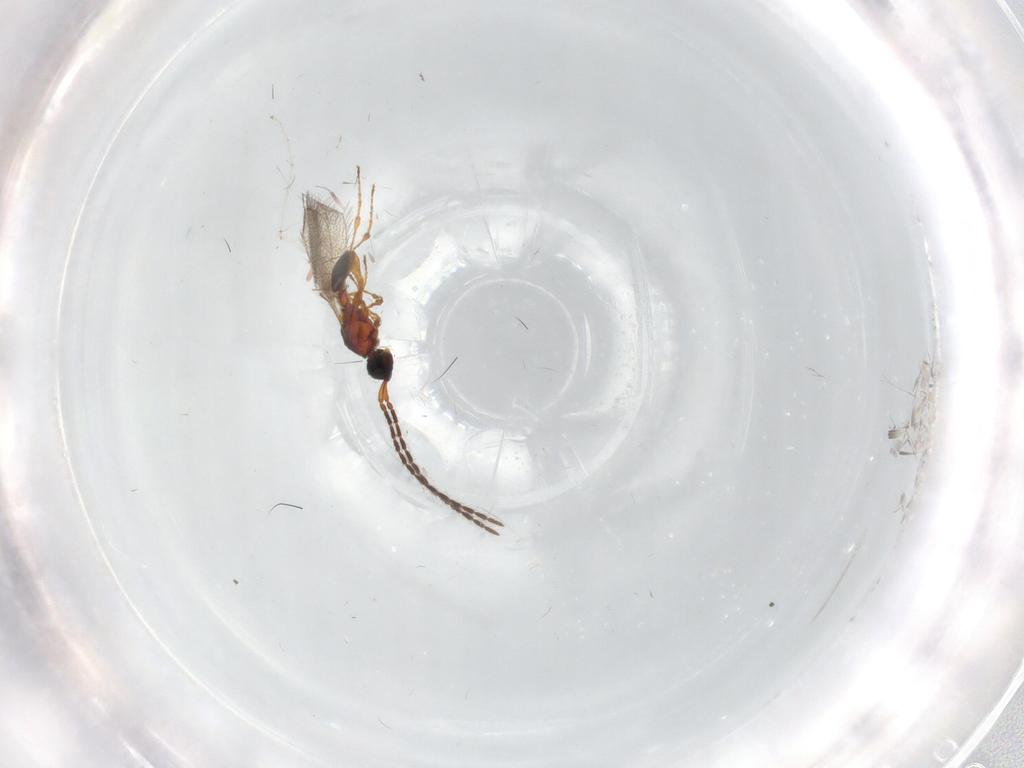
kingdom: Animalia
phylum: Arthropoda
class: Insecta
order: Hymenoptera
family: Diapriidae
